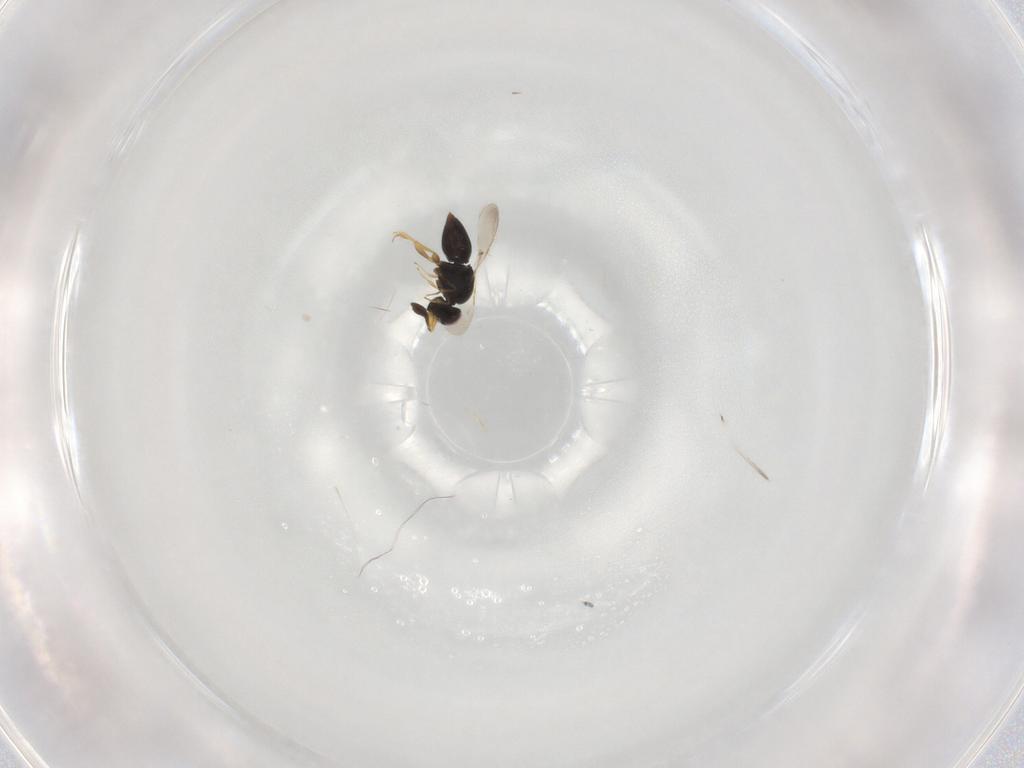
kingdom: Animalia
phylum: Arthropoda
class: Insecta
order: Hymenoptera
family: Ceraphronidae
